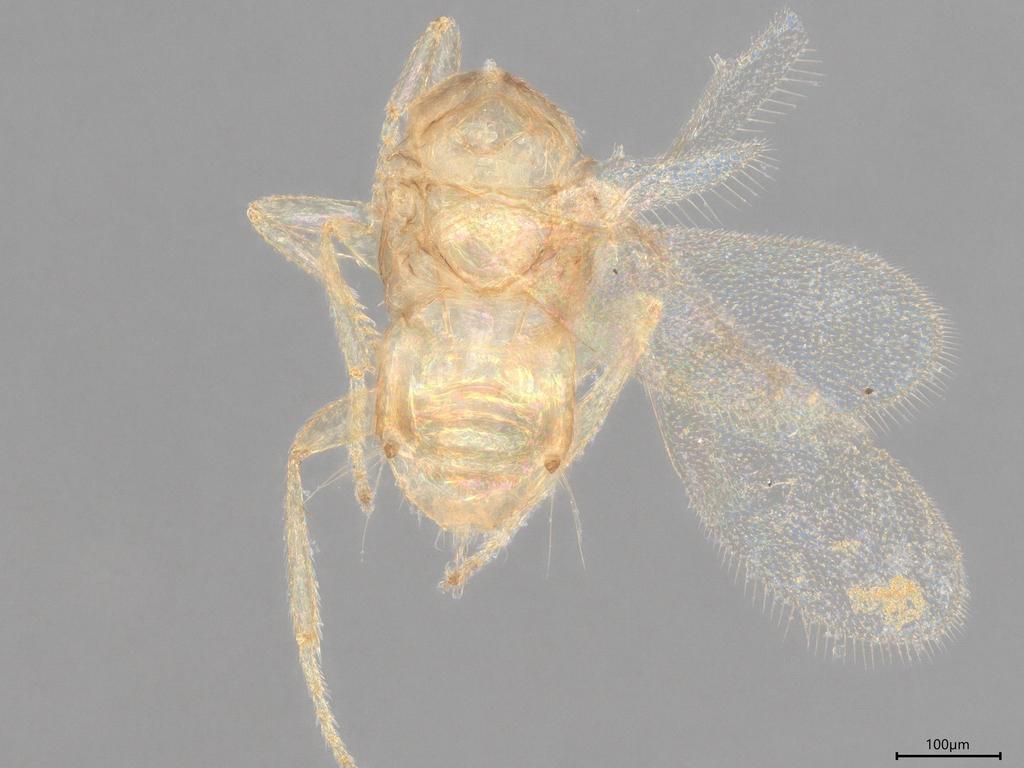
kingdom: Animalia
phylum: Arthropoda
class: Insecta
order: Hymenoptera
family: Encyrtidae
